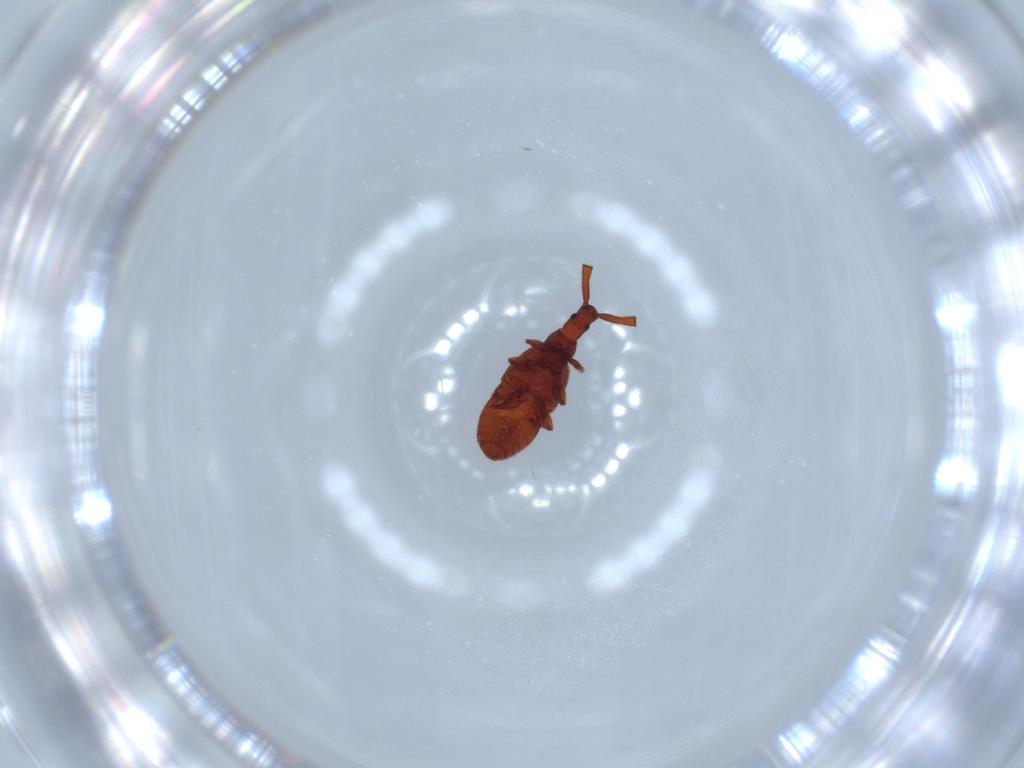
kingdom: Animalia
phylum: Arthropoda
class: Insecta
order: Coleoptera
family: Staphylinidae
